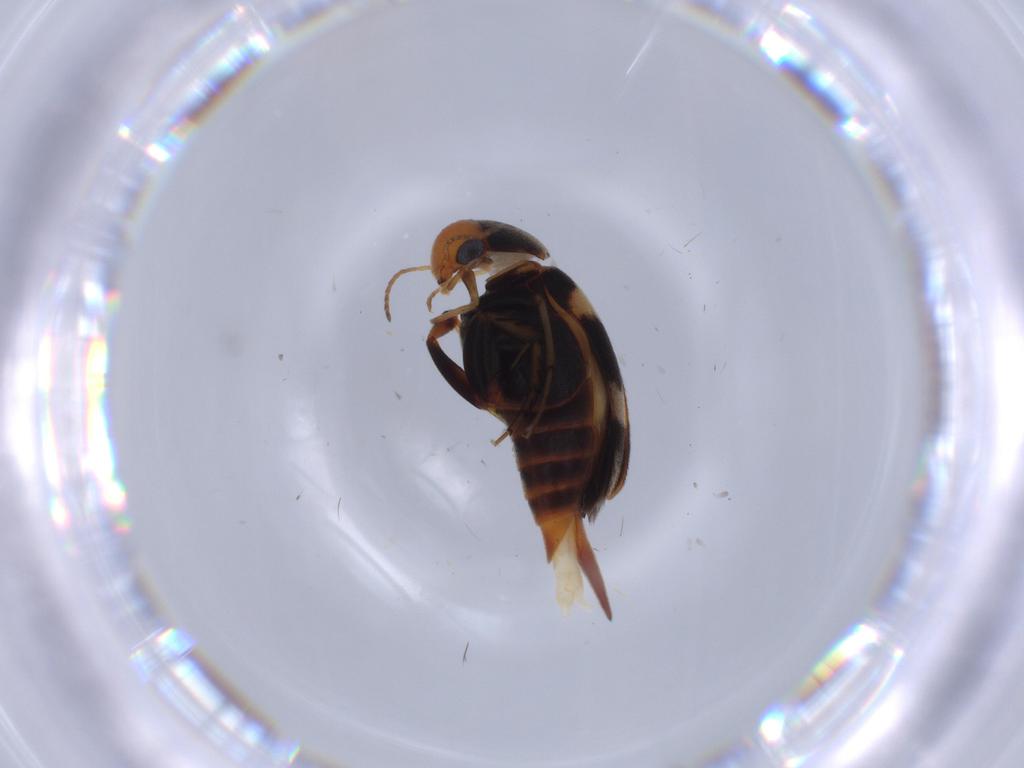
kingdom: Animalia
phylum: Arthropoda
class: Insecta
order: Coleoptera
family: Mordellidae
